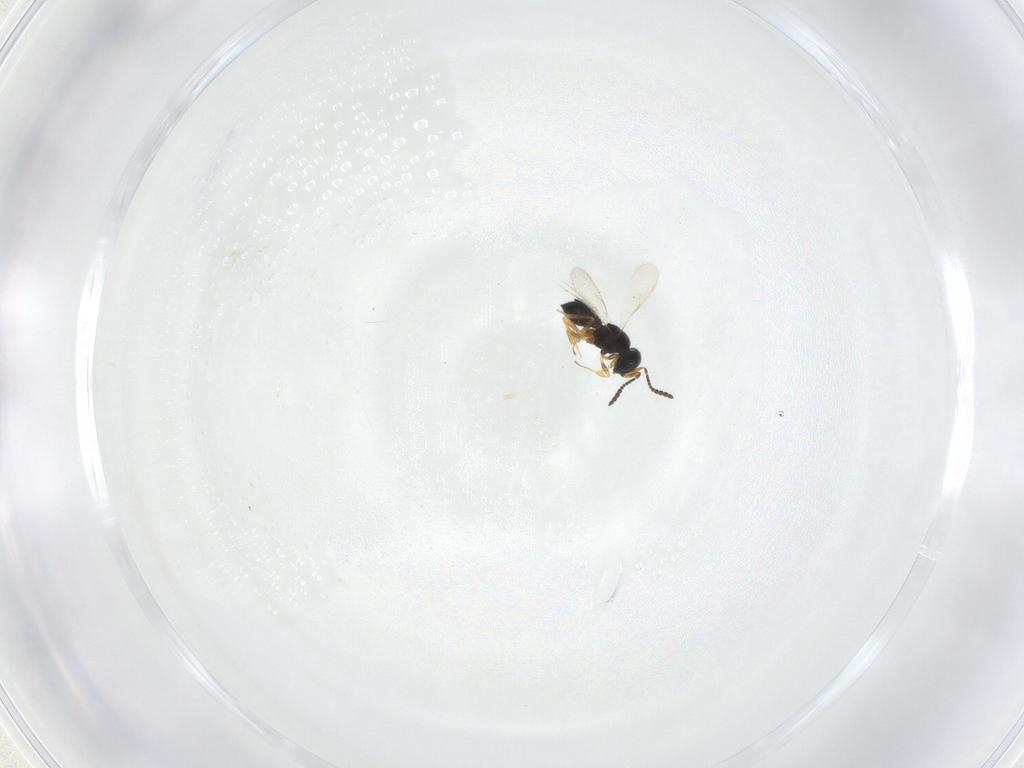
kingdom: Animalia
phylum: Arthropoda
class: Insecta
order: Hymenoptera
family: Scelionidae
